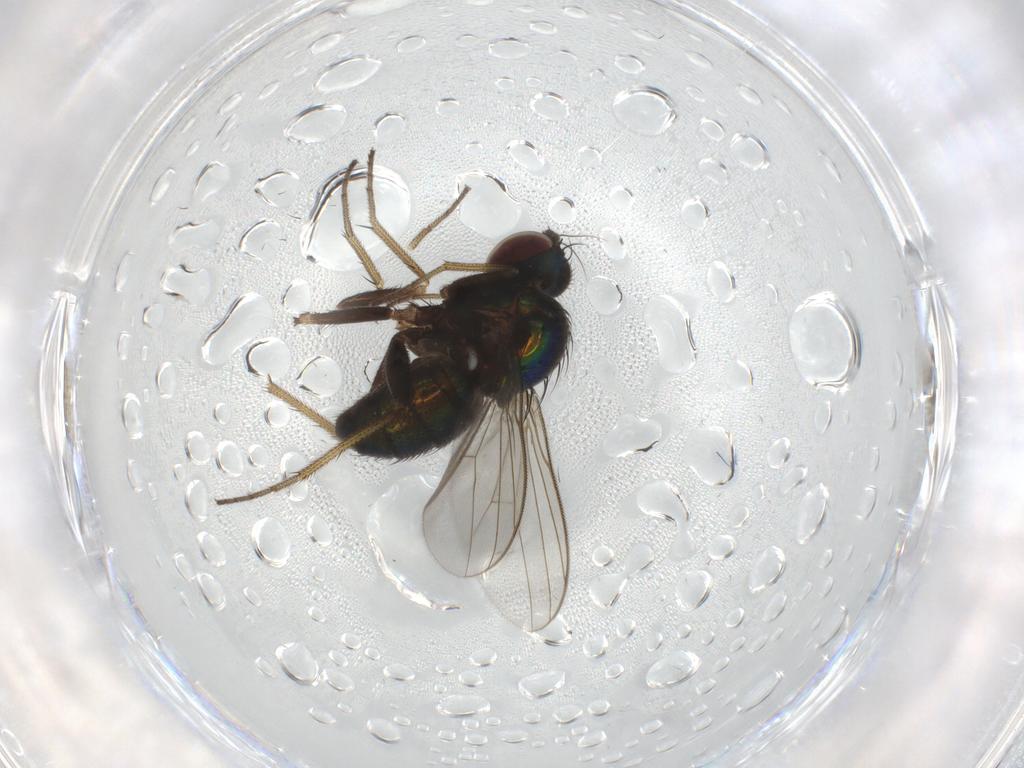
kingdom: Animalia
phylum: Arthropoda
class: Insecta
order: Diptera
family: Dolichopodidae
